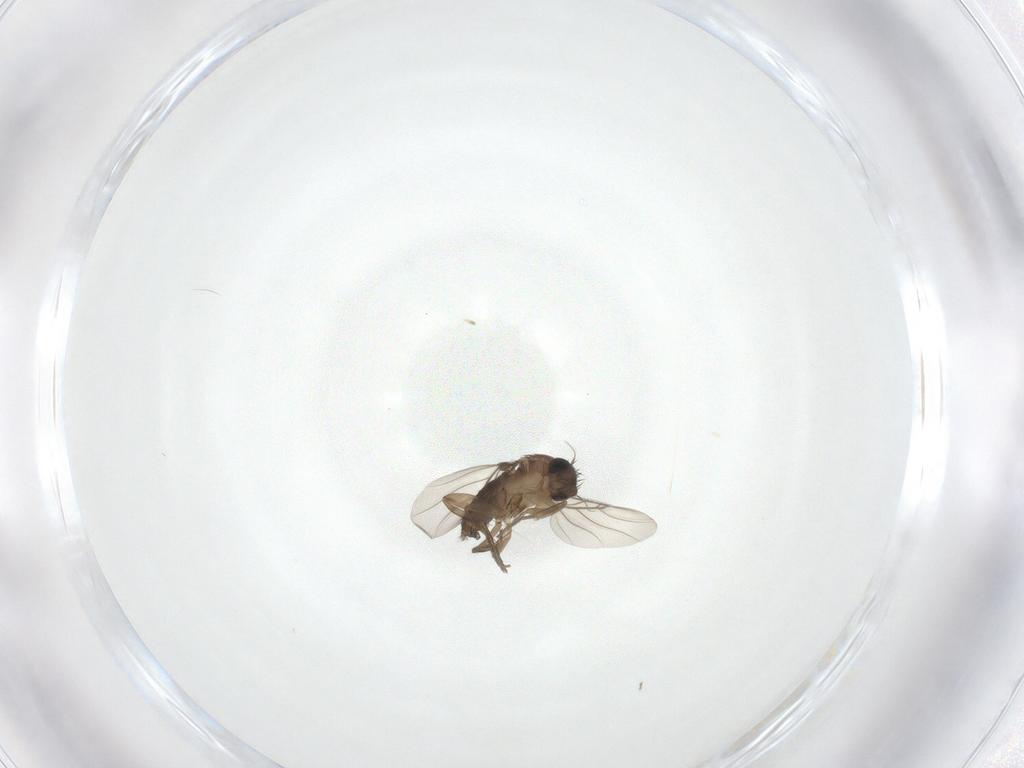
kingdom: Animalia
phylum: Arthropoda
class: Insecta
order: Diptera
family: Phoridae
